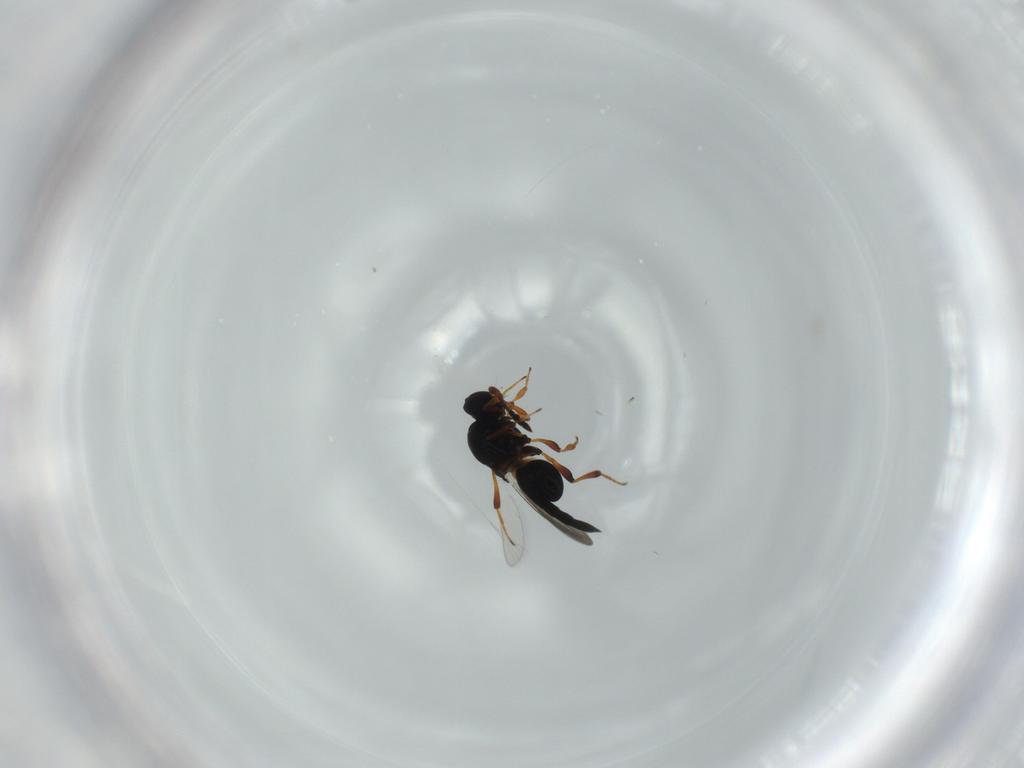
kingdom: Animalia
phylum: Arthropoda
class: Insecta
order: Hymenoptera
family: Platygastridae
